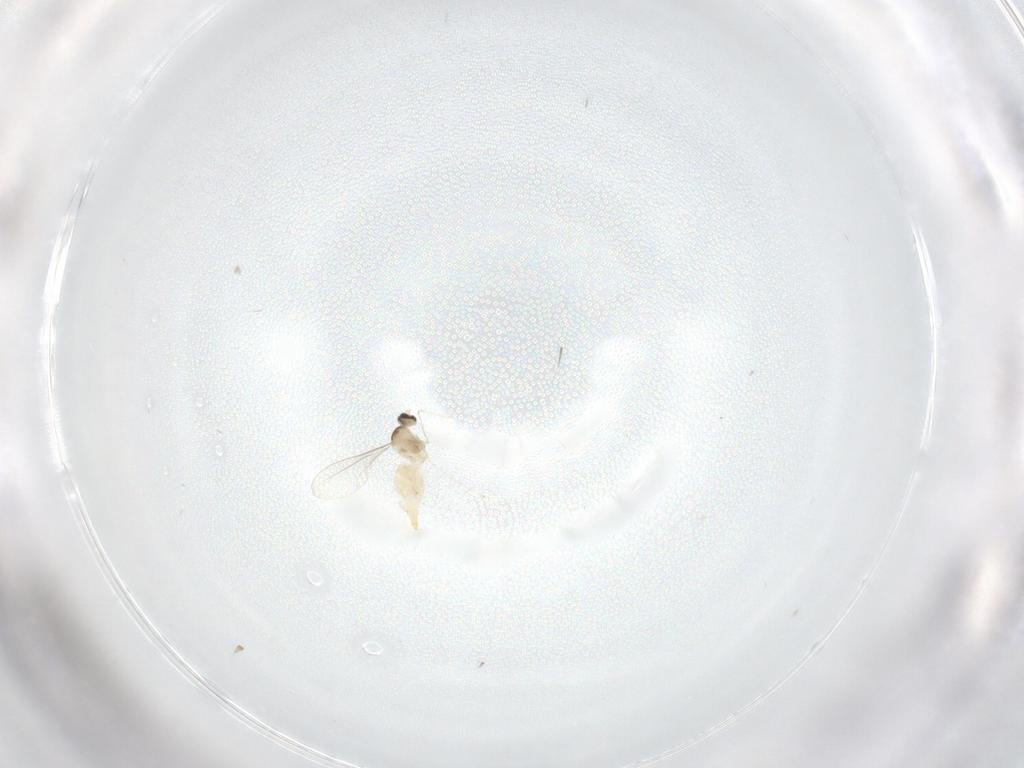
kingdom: Animalia
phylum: Arthropoda
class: Insecta
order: Diptera
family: Cecidomyiidae
